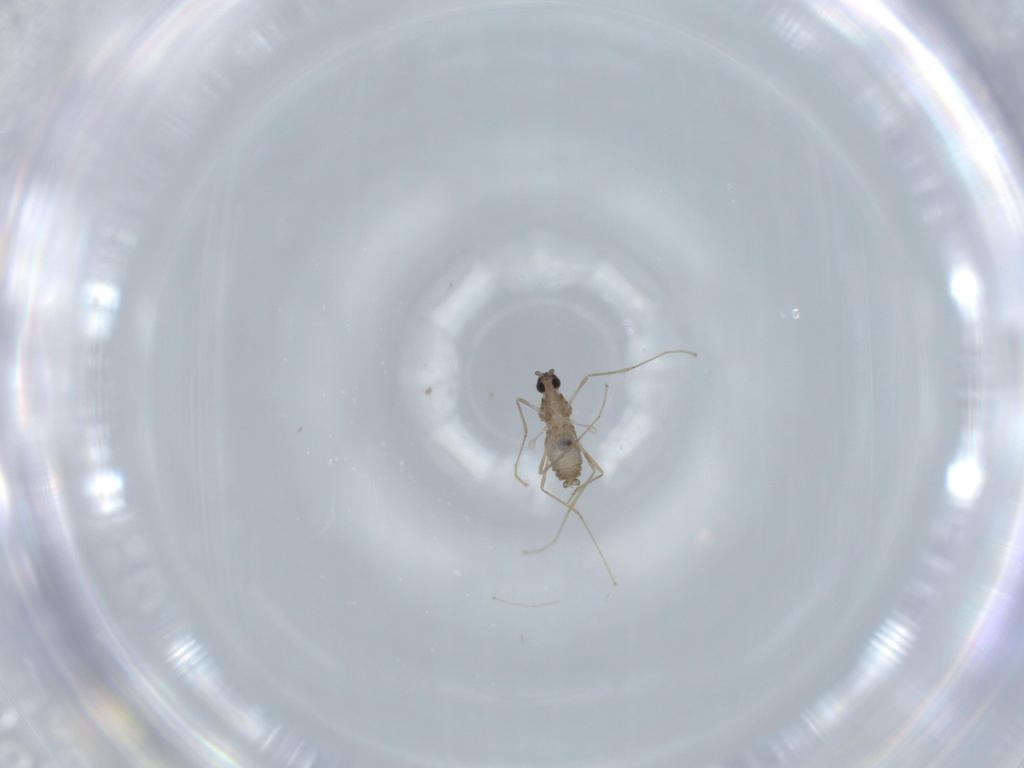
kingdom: Animalia
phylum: Arthropoda
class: Insecta
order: Diptera
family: Cecidomyiidae
